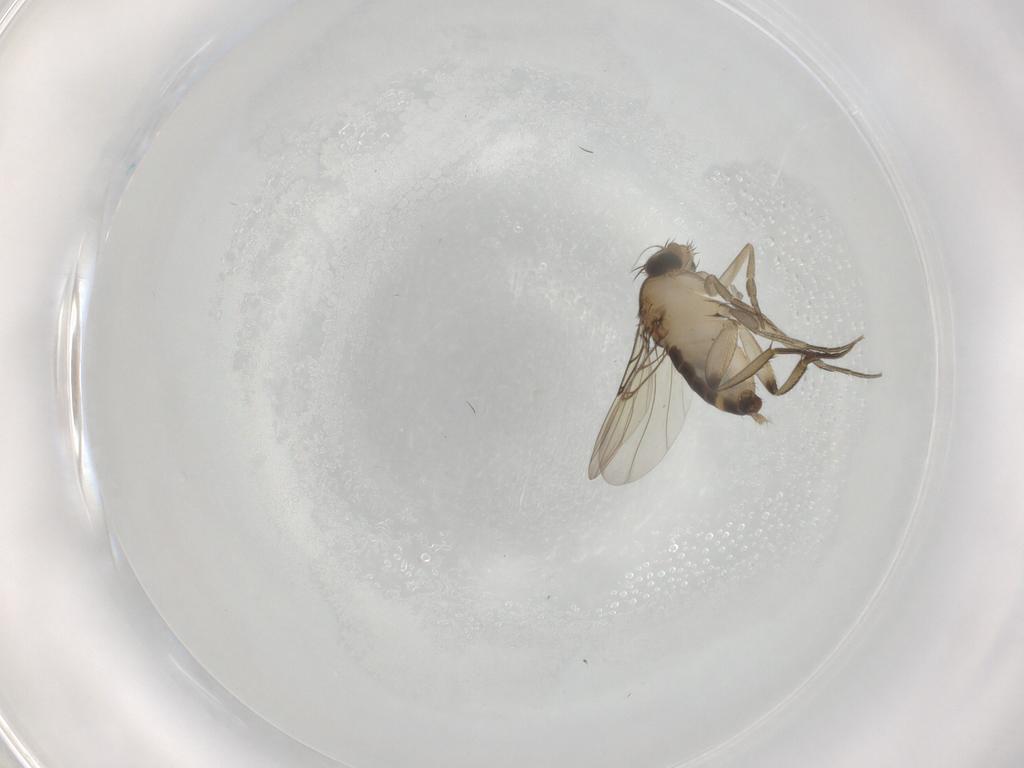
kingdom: Animalia
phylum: Arthropoda
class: Insecta
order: Diptera
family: Phoridae
